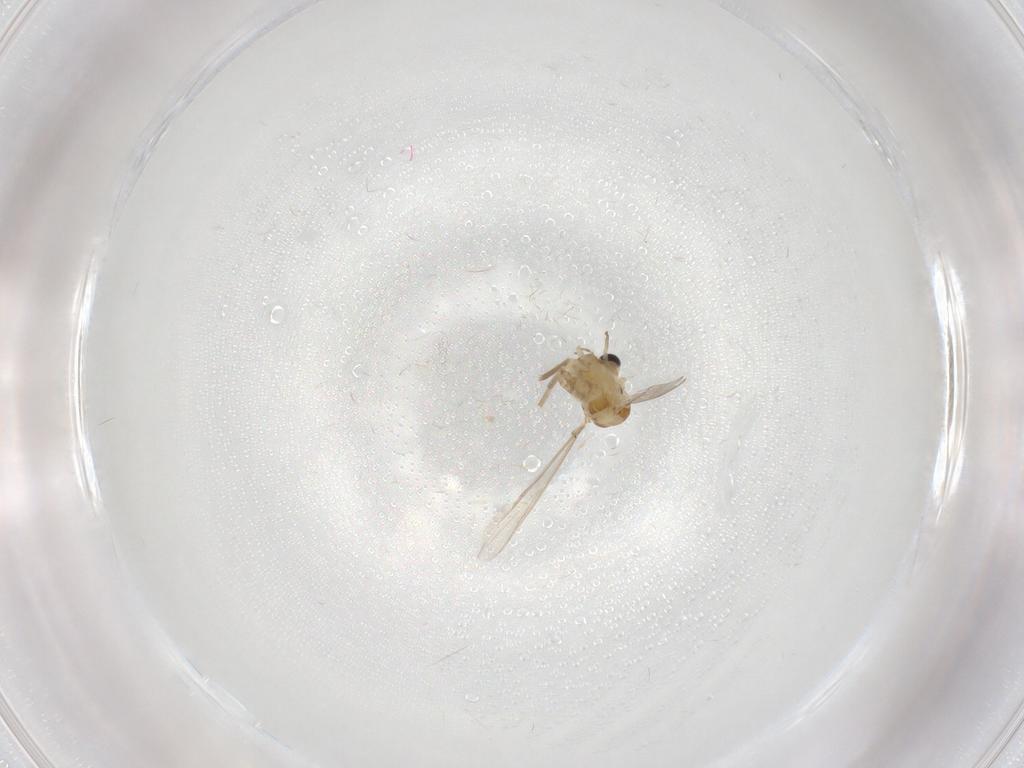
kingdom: Animalia
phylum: Arthropoda
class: Insecta
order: Diptera
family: Chironomidae
